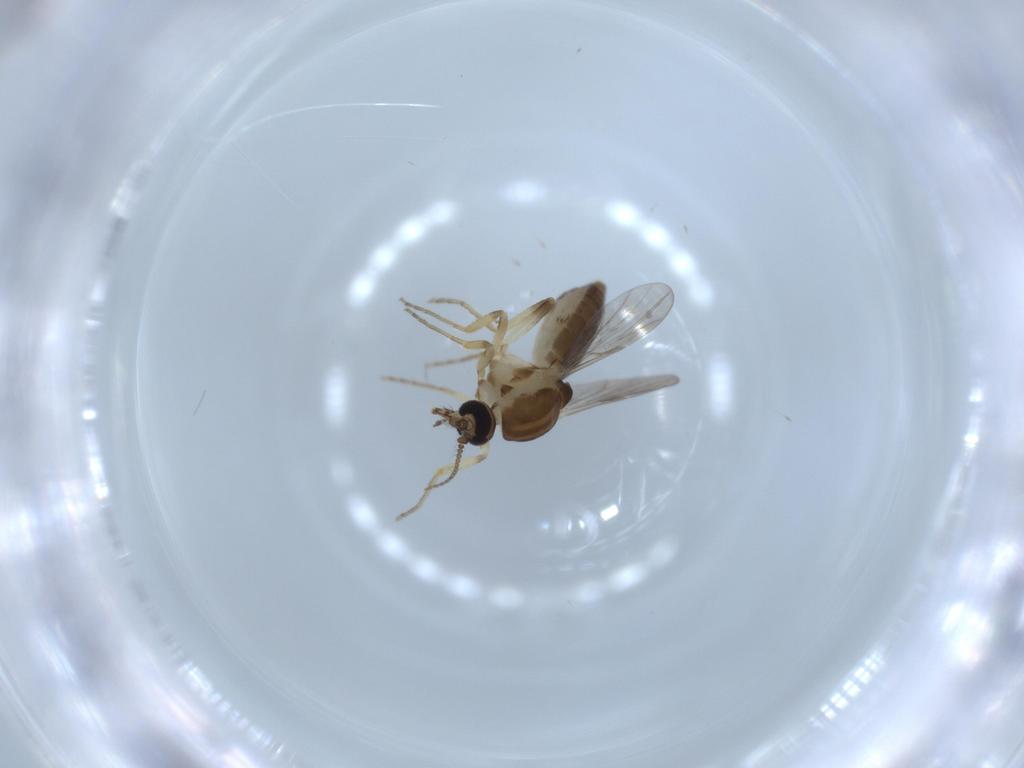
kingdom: Animalia
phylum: Arthropoda
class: Insecta
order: Diptera
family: Ceratopogonidae
